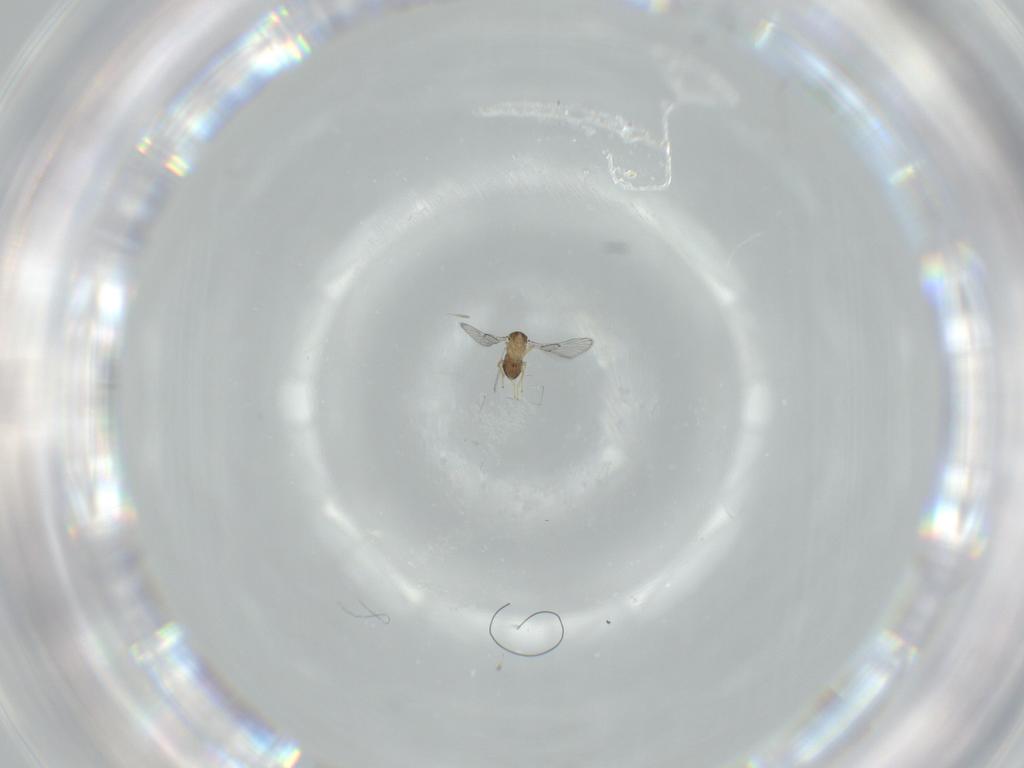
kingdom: Animalia
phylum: Arthropoda
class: Insecta
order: Hymenoptera
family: Trichogrammatidae
